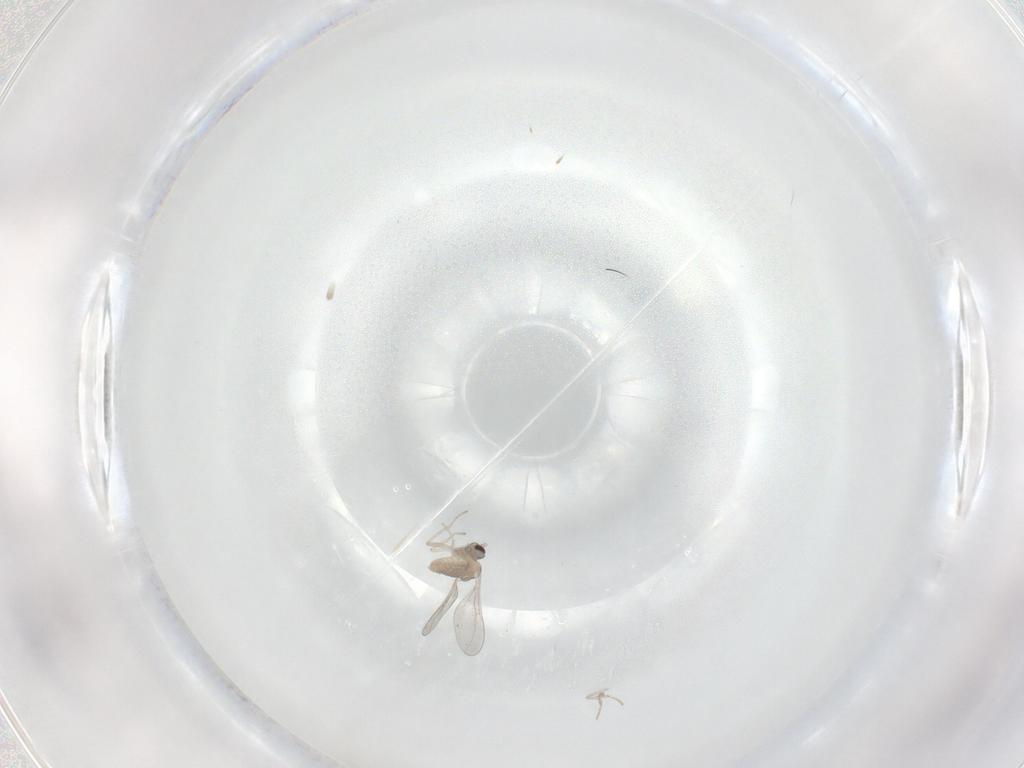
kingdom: Animalia
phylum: Arthropoda
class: Insecta
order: Diptera
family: Cecidomyiidae
